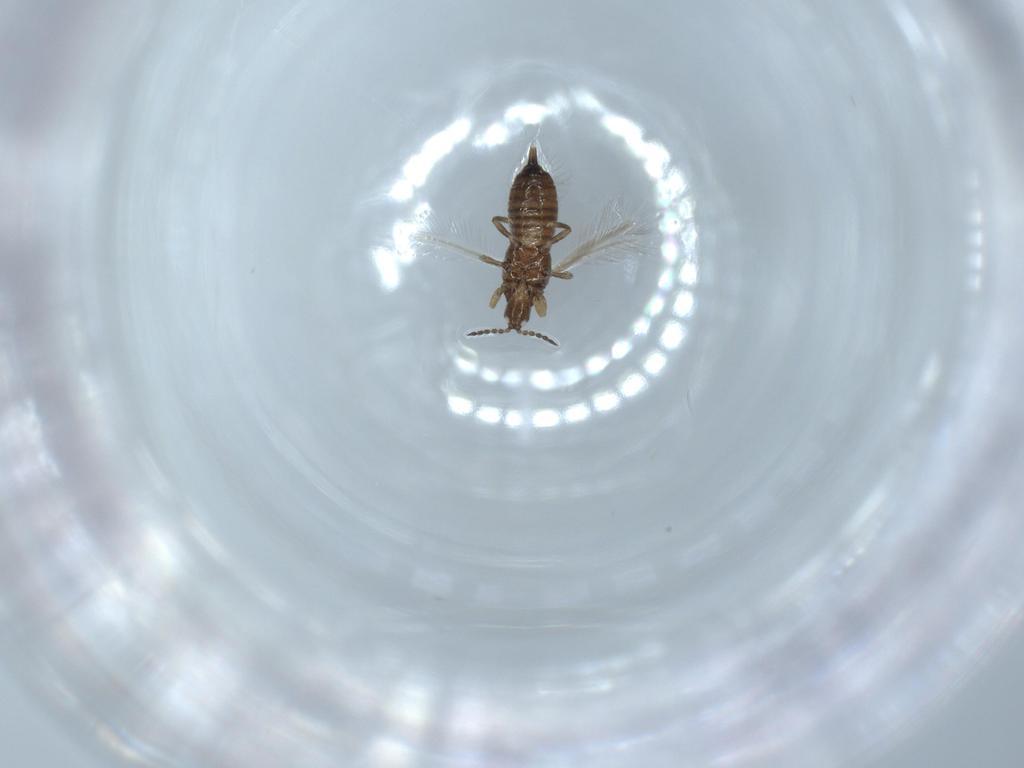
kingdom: Animalia
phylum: Arthropoda
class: Insecta
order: Thysanoptera
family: Phlaeothripidae
